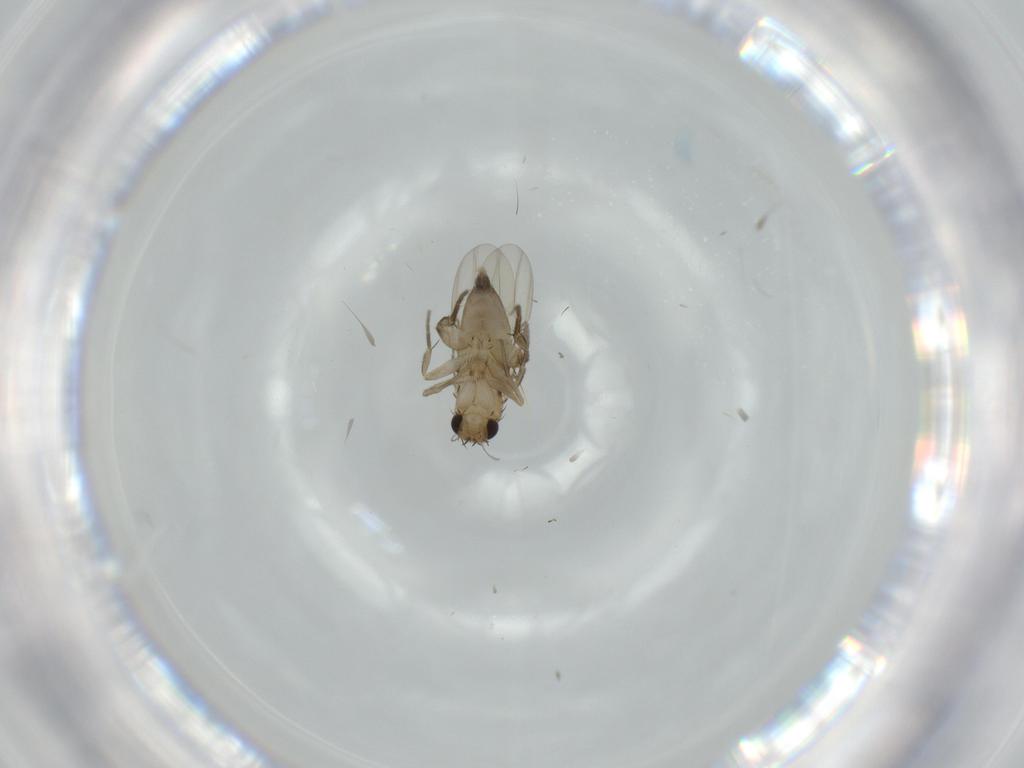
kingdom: Animalia
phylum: Arthropoda
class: Insecta
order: Diptera
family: Phoridae
